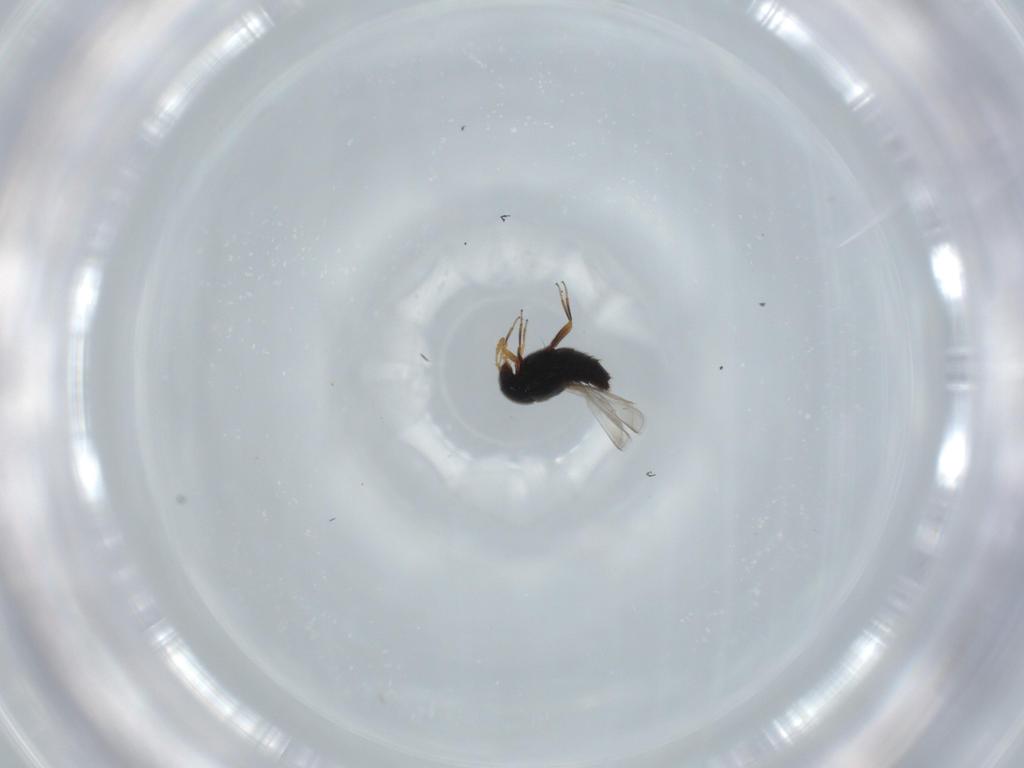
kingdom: Animalia
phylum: Arthropoda
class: Insecta
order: Coleoptera
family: Staphylinidae
